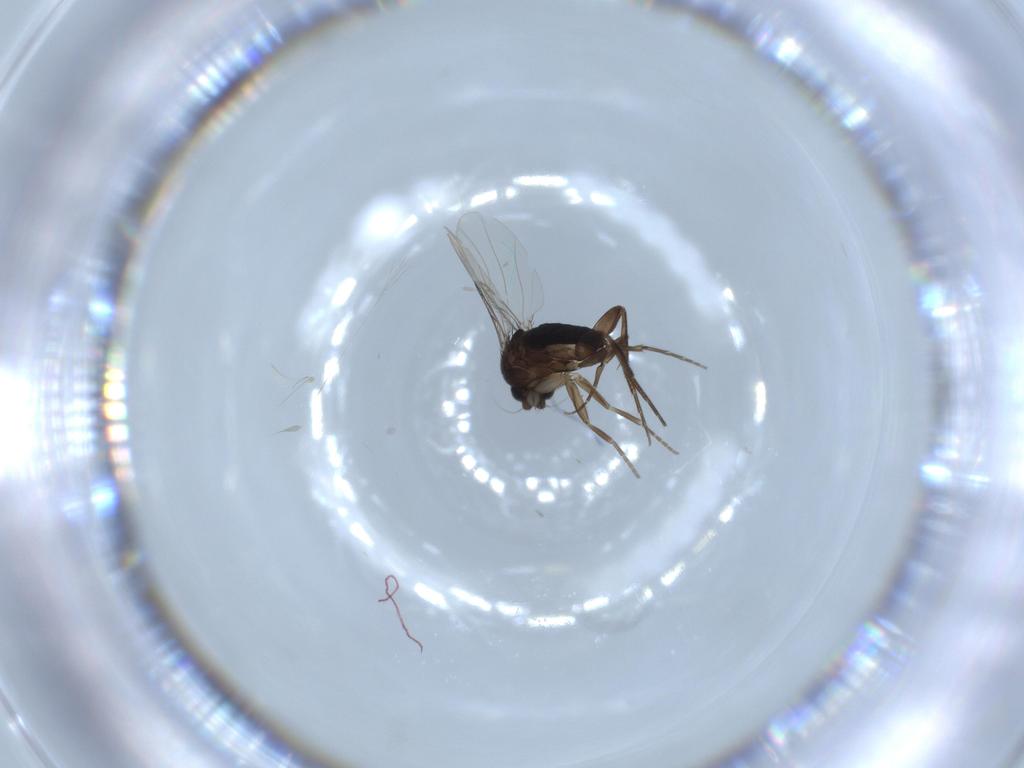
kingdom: Animalia
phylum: Arthropoda
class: Insecta
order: Diptera
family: Phoridae
